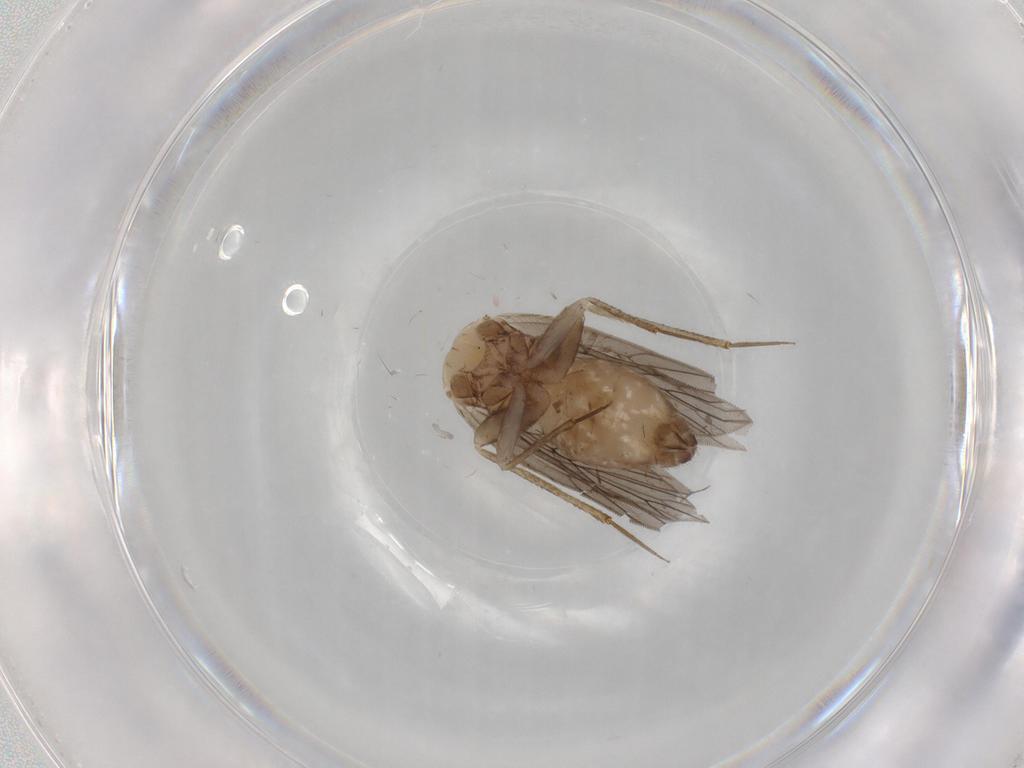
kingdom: Animalia
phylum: Arthropoda
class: Insecta
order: Psocodea
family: Lepidopsocidae
